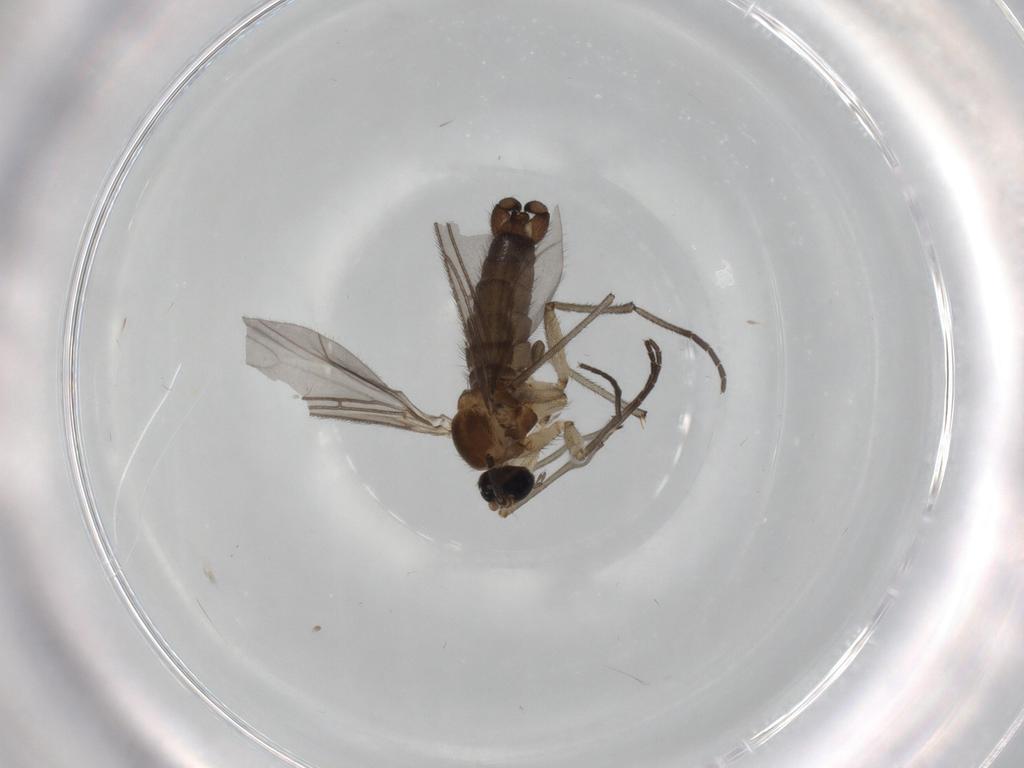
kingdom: Animalia
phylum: Arthropoda
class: Insecta
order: Diptera
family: Sciaridae
